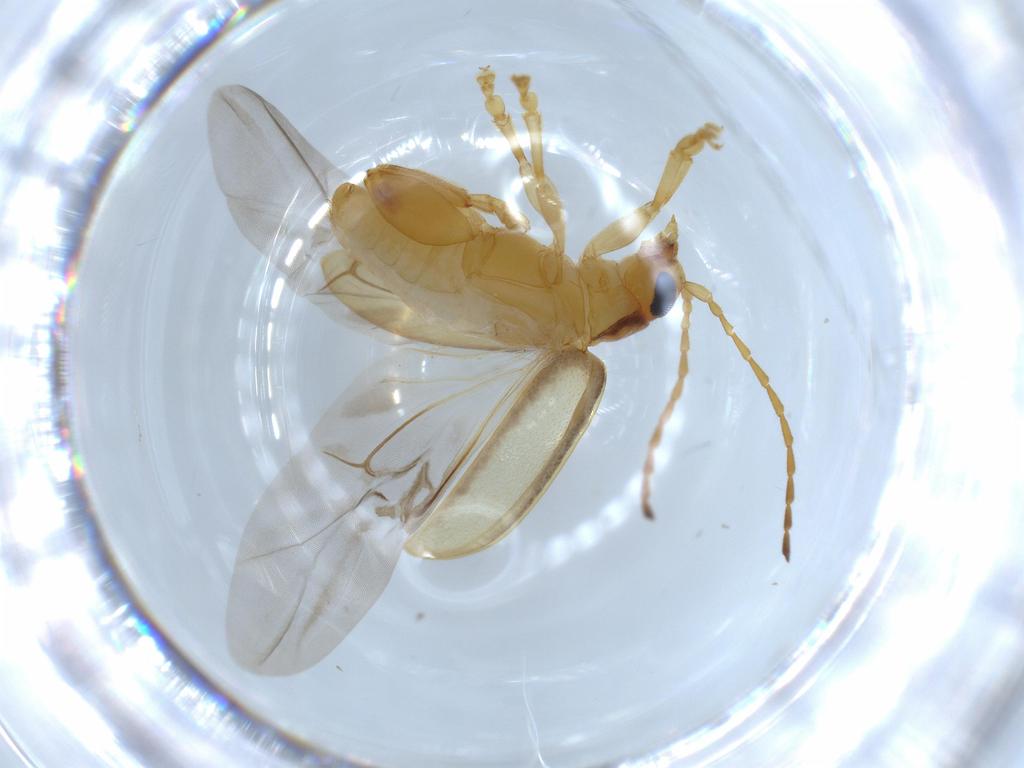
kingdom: Animalia
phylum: Arthropoda
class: Insecta
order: Coleoptera
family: Chrysomelidae
